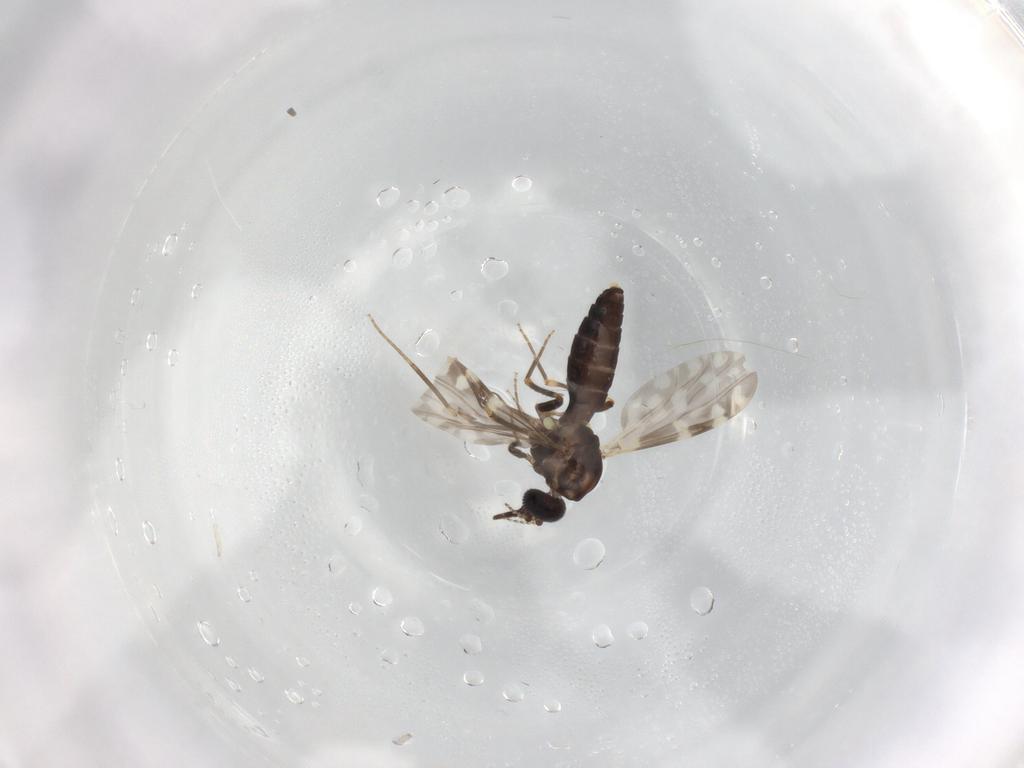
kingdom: Animalia
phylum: Arthropoda
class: Insecta
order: Diptera
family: Ceratopogonidae
